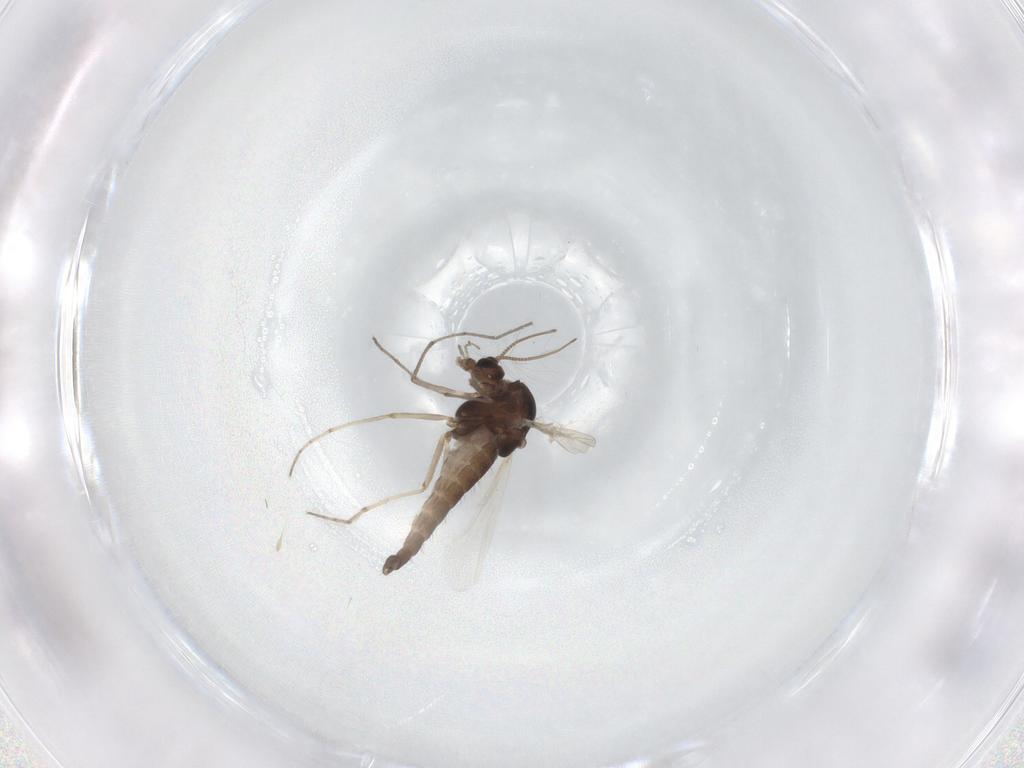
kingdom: Animalia
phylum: Arthropoda
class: Insecta
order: Diptera
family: Chironomidae
